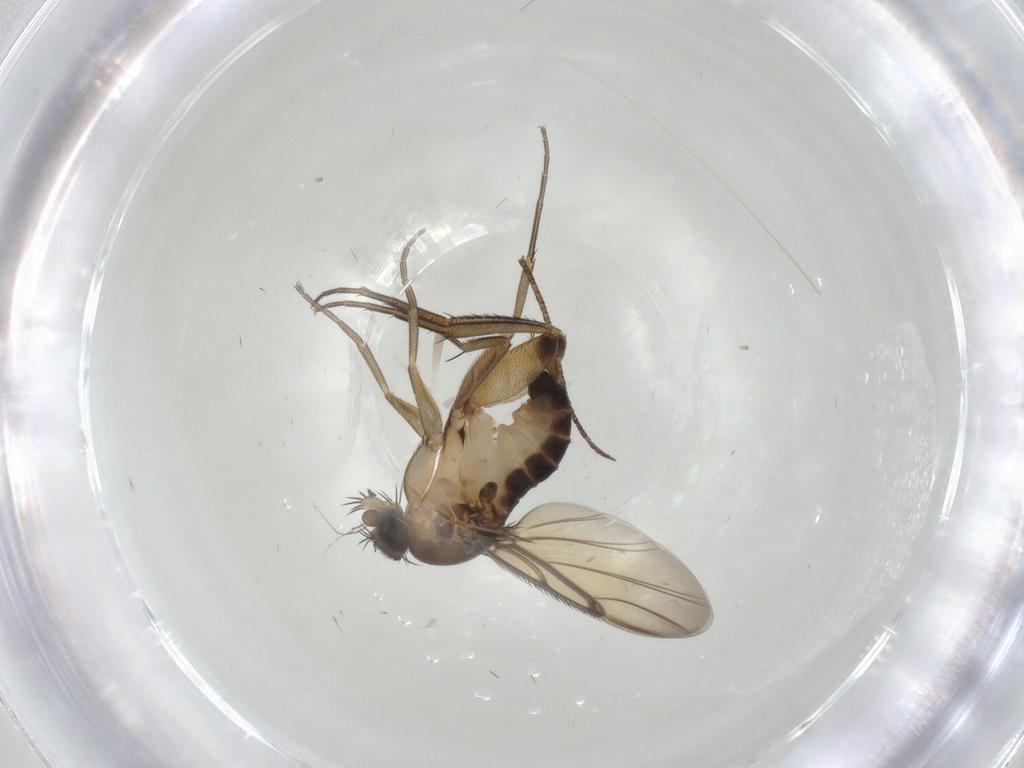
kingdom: Animalia
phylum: Arthropoda
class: Insecta
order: Diptera
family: Phoridae
